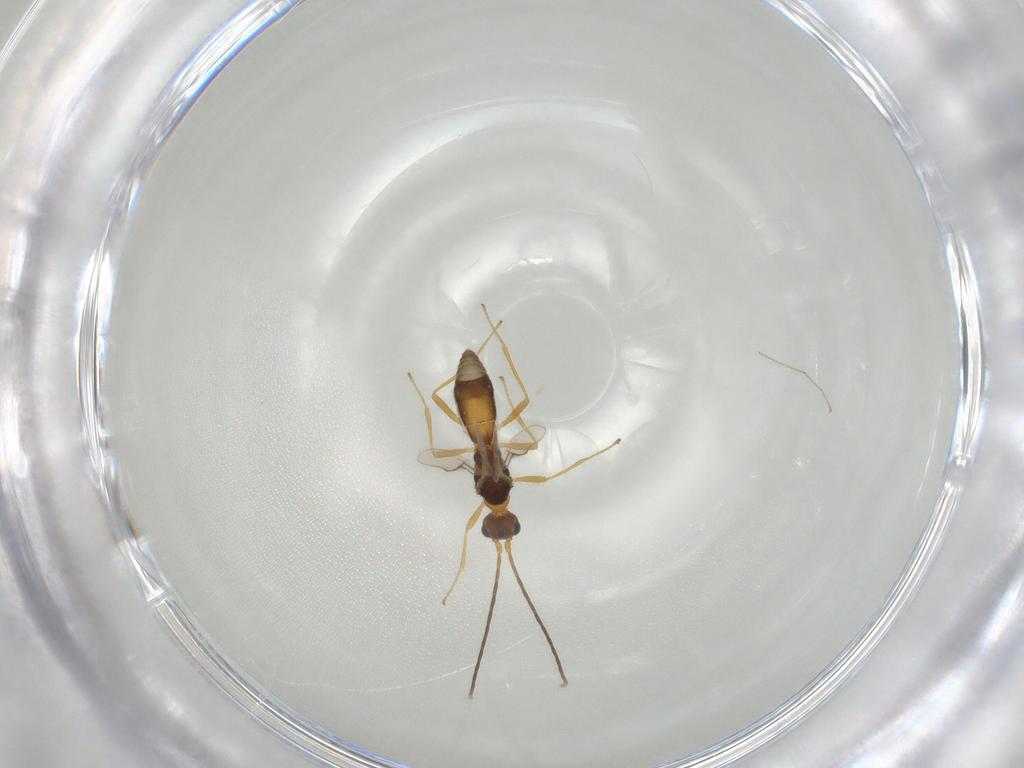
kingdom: Animalia
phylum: Arthropoda
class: Insecta
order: Hymenoptera
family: Braconidae
